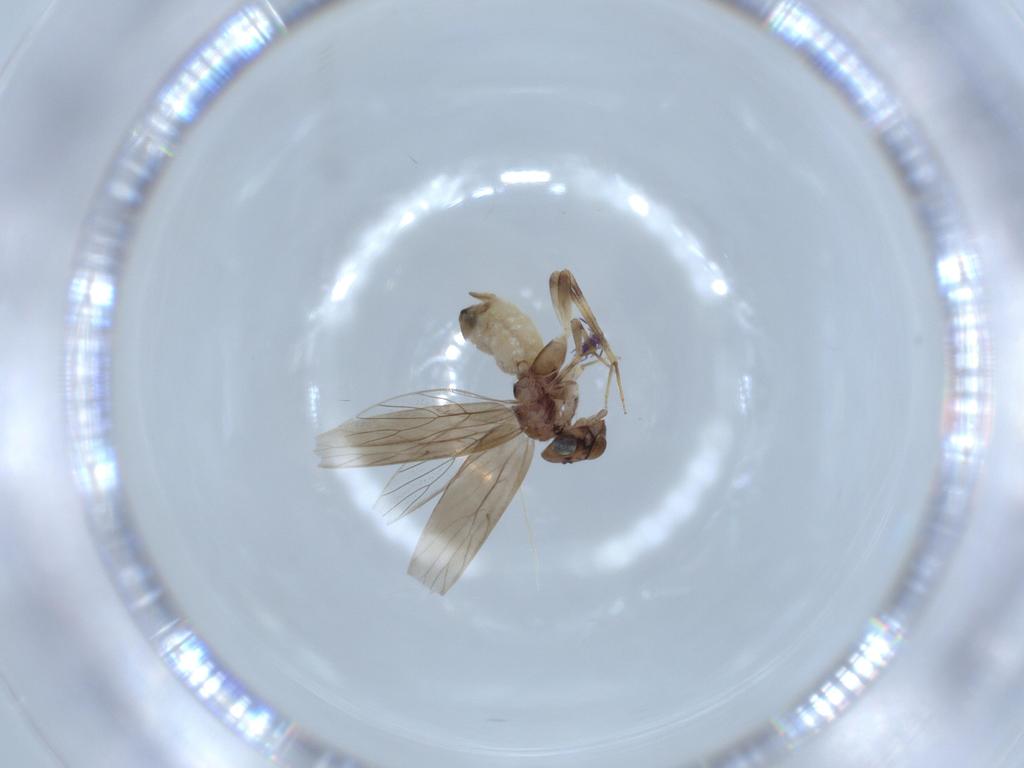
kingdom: Animalia
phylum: Arthropoda
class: Insecta
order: Psocodea
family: Lepidopsocidae
